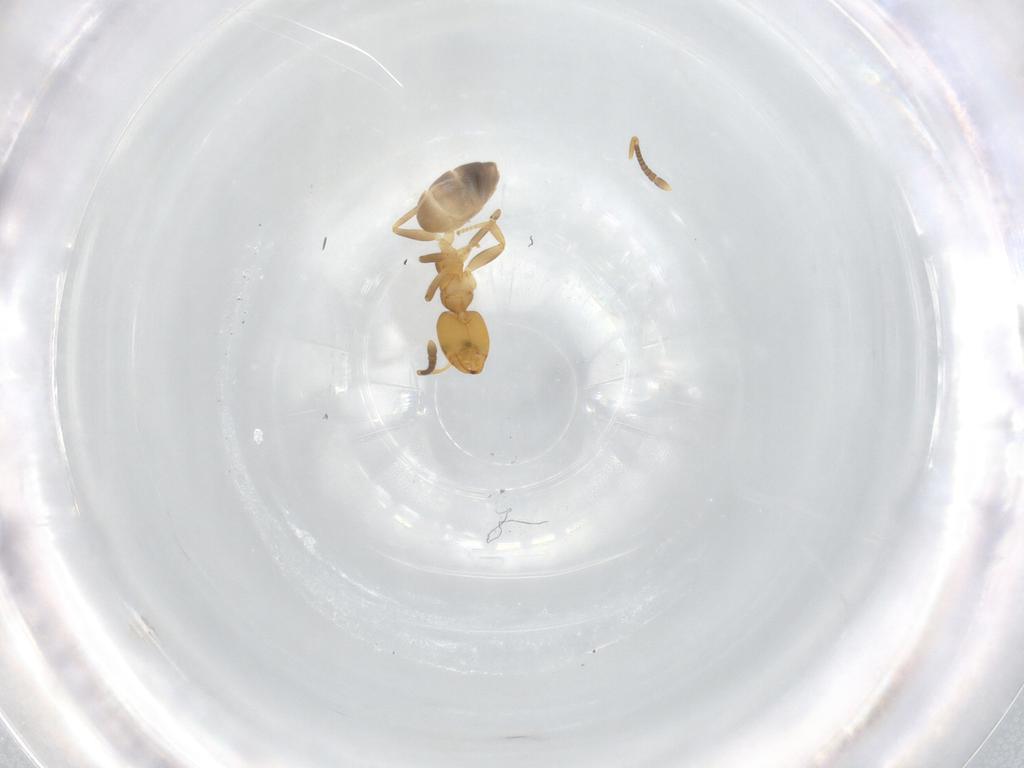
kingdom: Animalia
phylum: Arthropoda
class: Insecta
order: Hymenoptera
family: Formicidae
